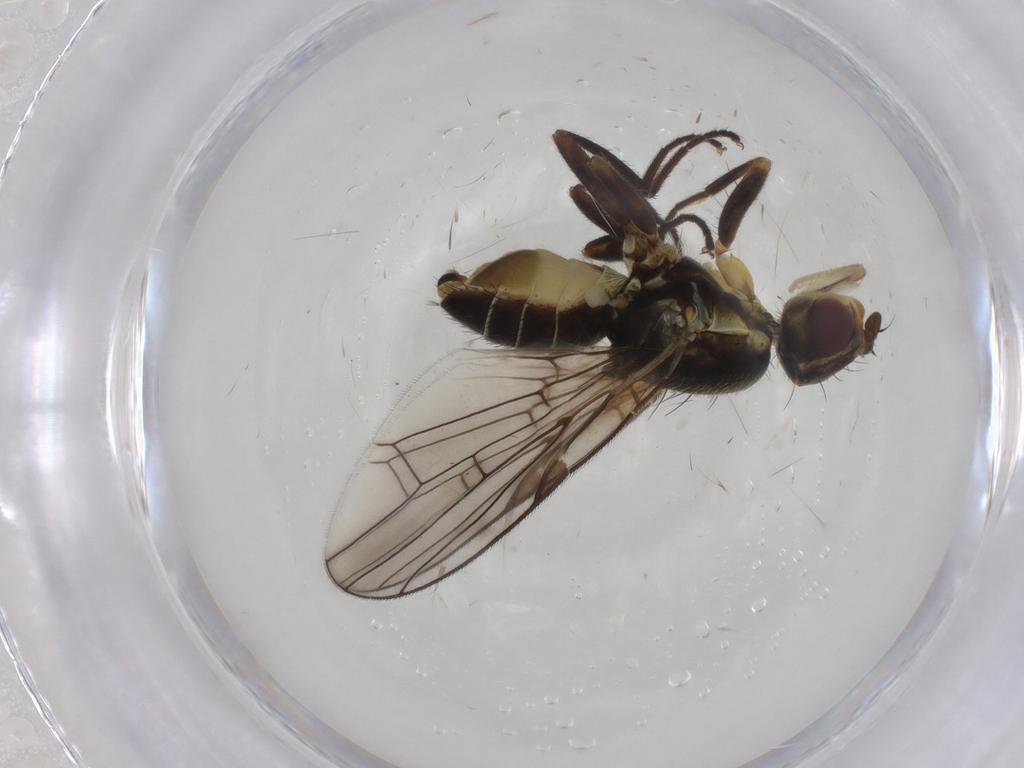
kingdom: Animalia
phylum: Arthropoda
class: Insecta
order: Diptera
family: Tephritidae
